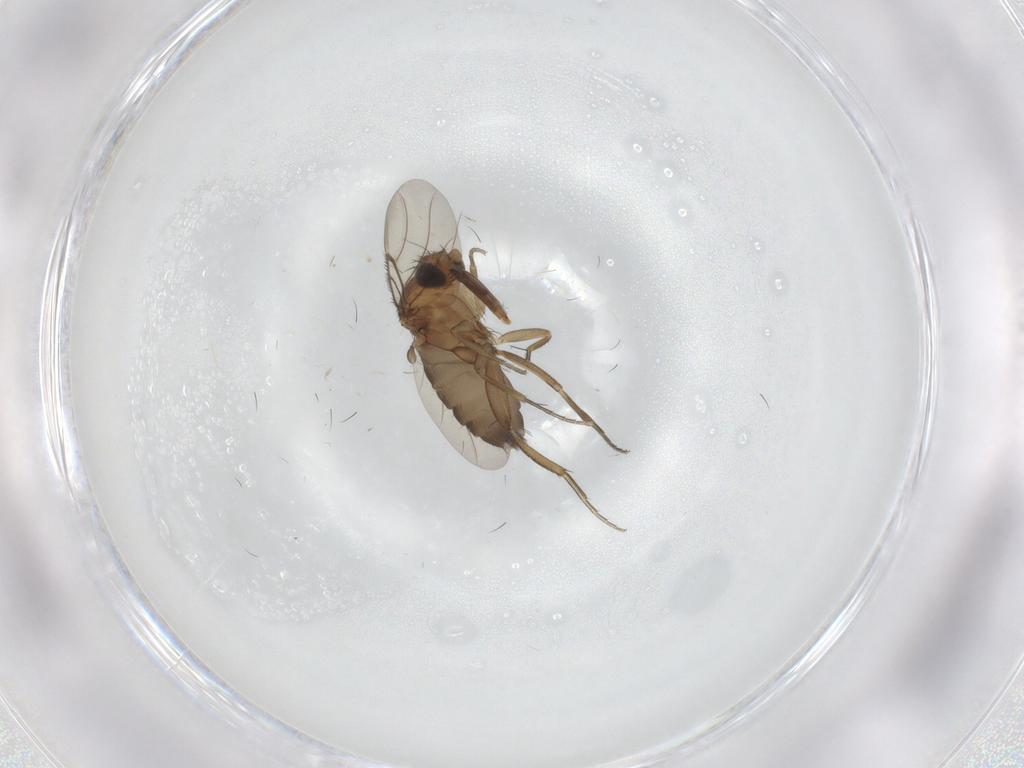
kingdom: Animalia
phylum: Arthropoda
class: Insecta
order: Diptera
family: Phoridae
